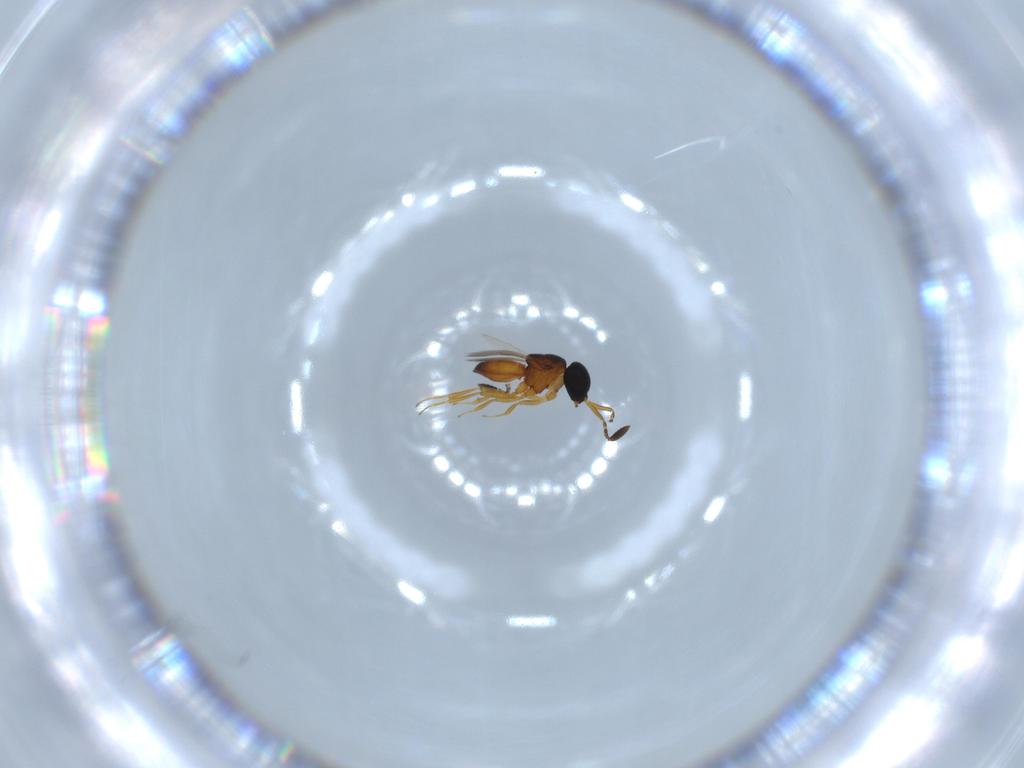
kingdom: Animalia
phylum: Arthropoda
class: Insecta
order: Hymenoptera
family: Scelionidae
